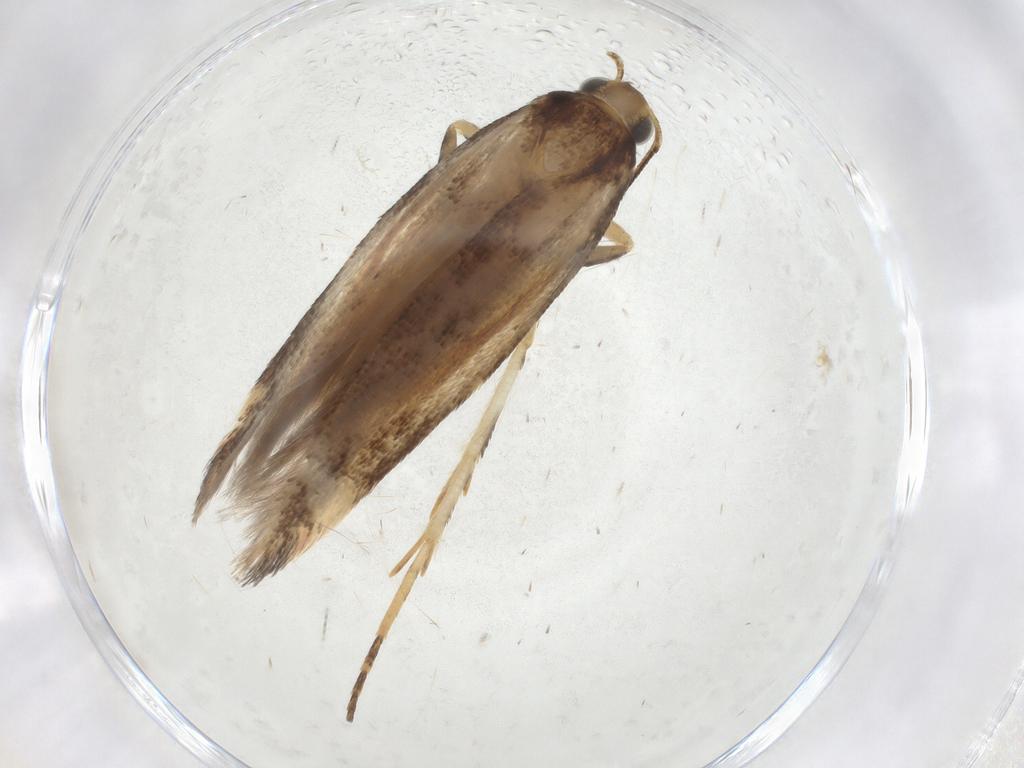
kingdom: Animalia
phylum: Arthropoda
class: Insecta
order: Lepidoptera
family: Gelechiidae
